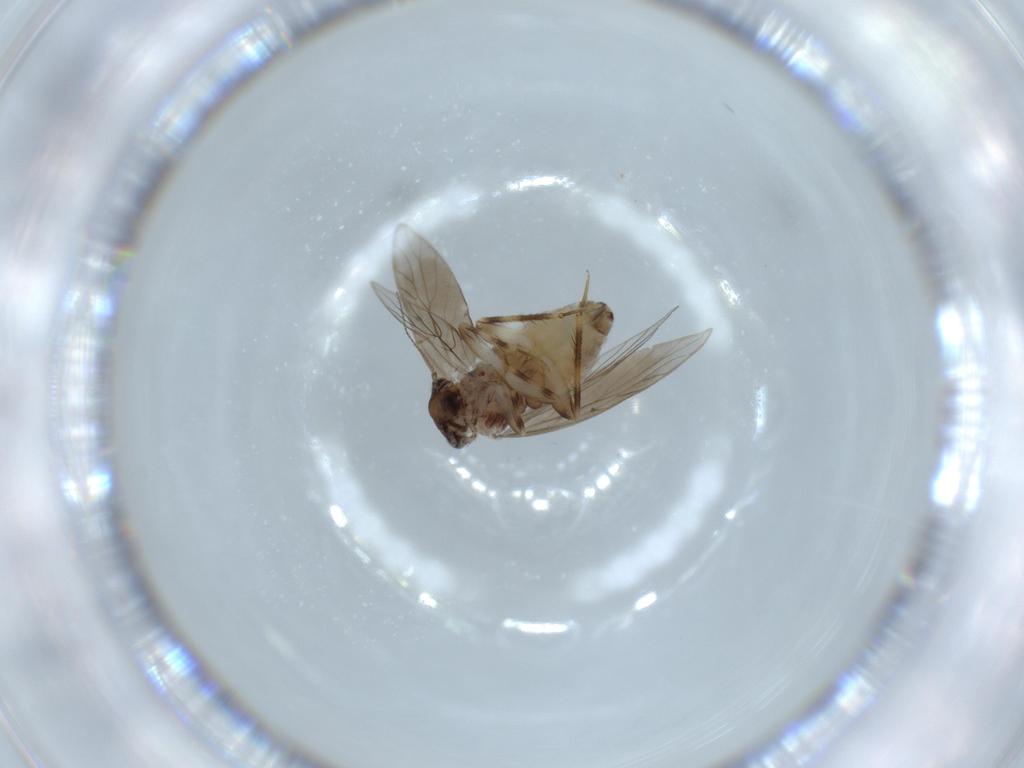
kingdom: Animalia
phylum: Arthropoda
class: Insecta
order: Psocodea
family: Lepidopsocidae
